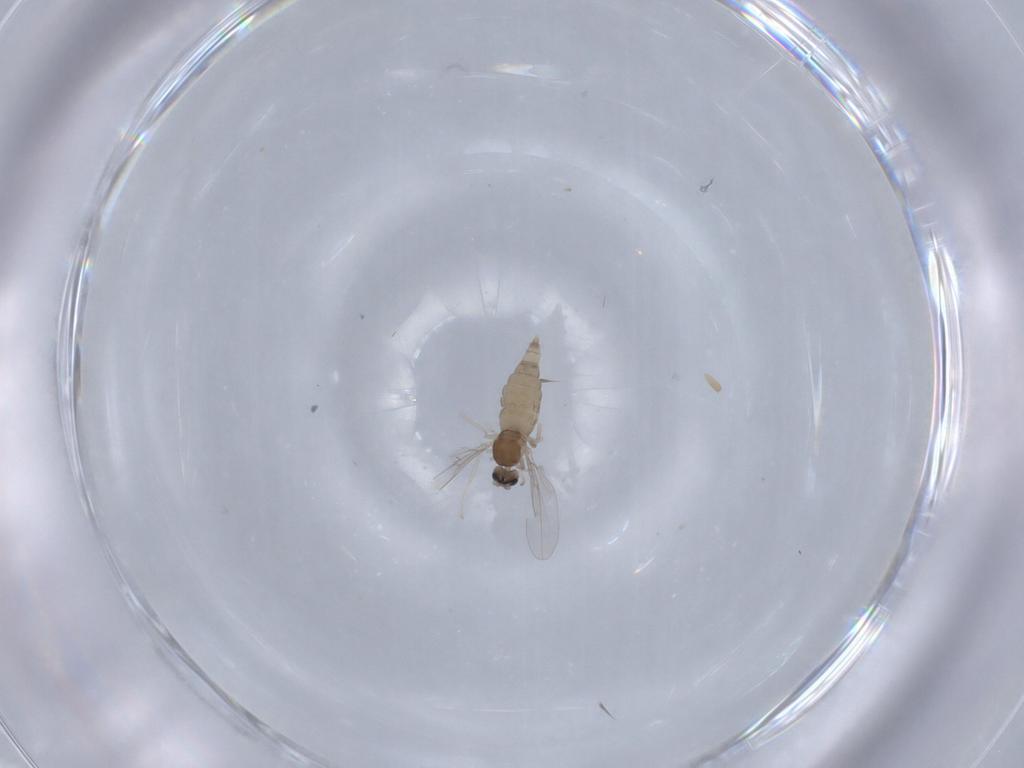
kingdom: Animalia
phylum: Arthropoda
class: Insecta
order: Diptera
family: Cecidomyiidae
